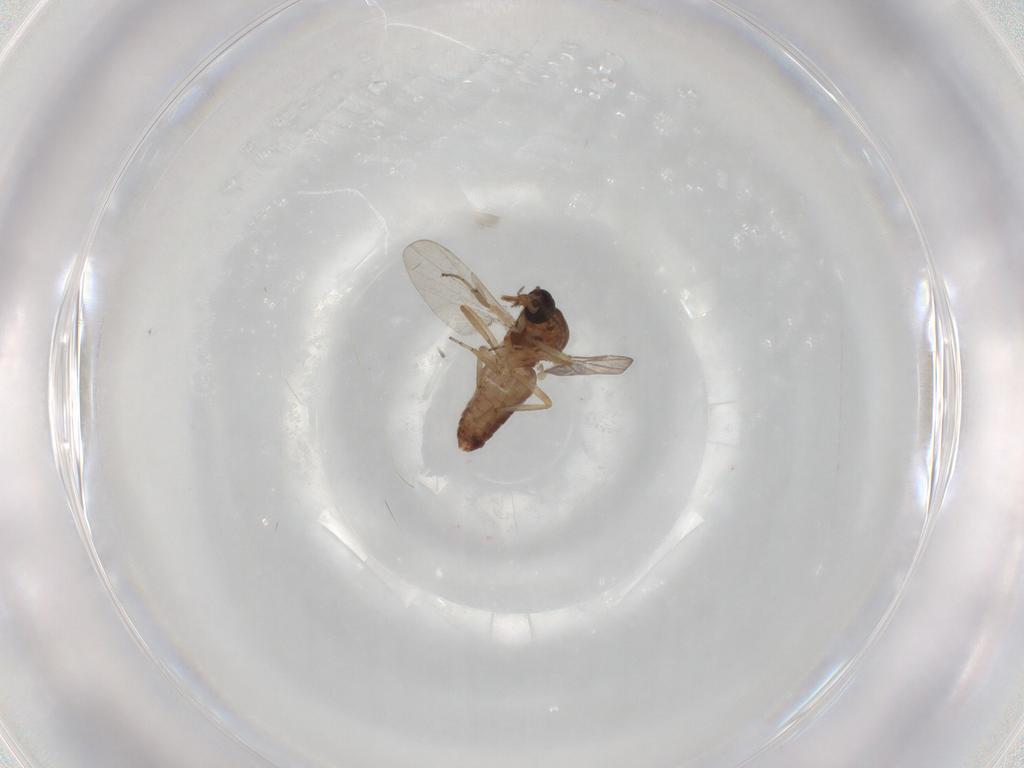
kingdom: Animalia
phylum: Arthropoda
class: Insecta
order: Diptera
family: Ceratopogonidae
